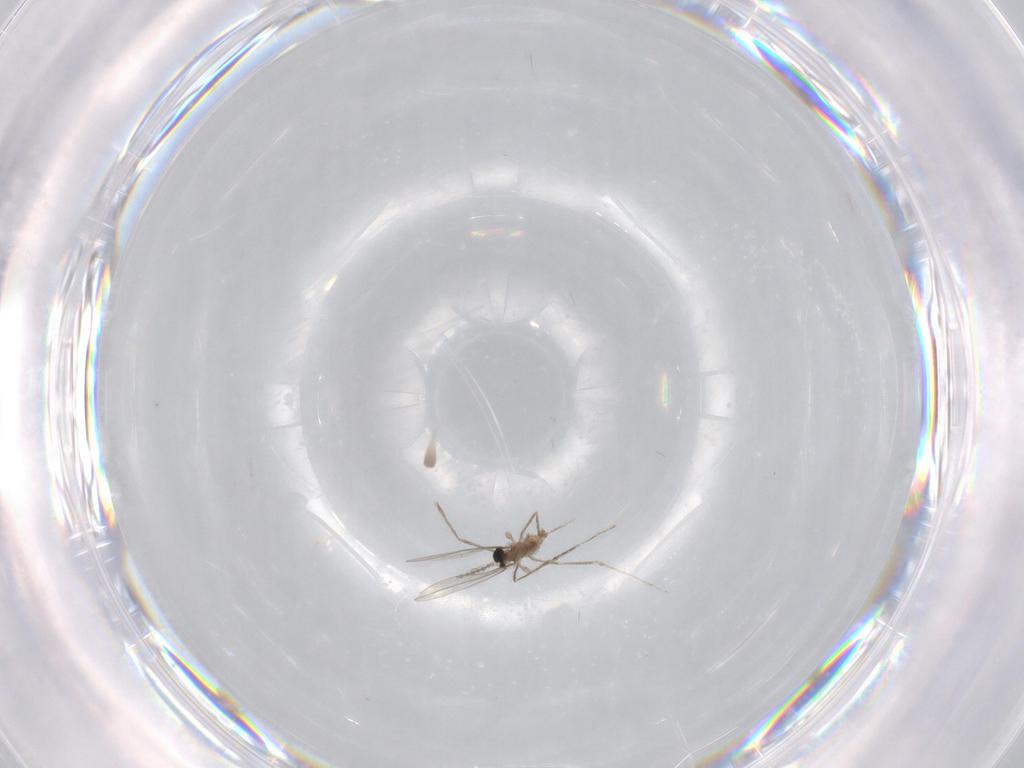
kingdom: Animalia
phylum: Arthropoda
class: Insecta
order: Diptera
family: Cecidomyiidae
